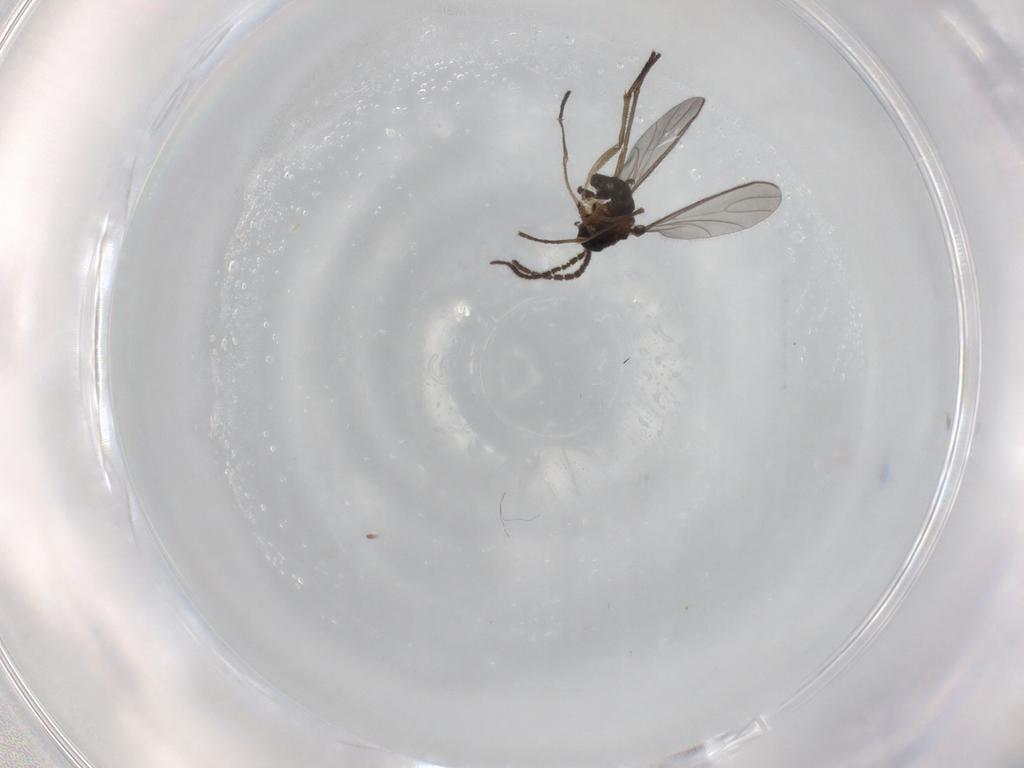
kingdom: Animalia
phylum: Arthropoda
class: Insecta
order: Diptera
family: Sciaridae
